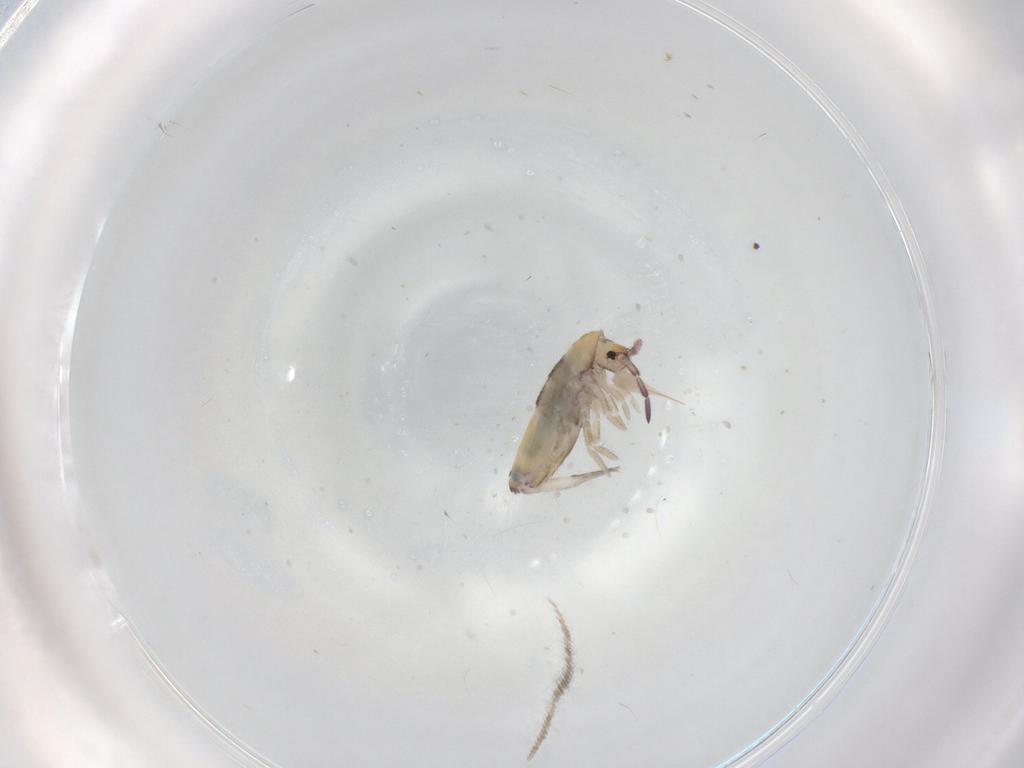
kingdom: Animalia
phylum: Arthropoda
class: Collembola
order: Entomobryomorpha
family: Entomobryidae
